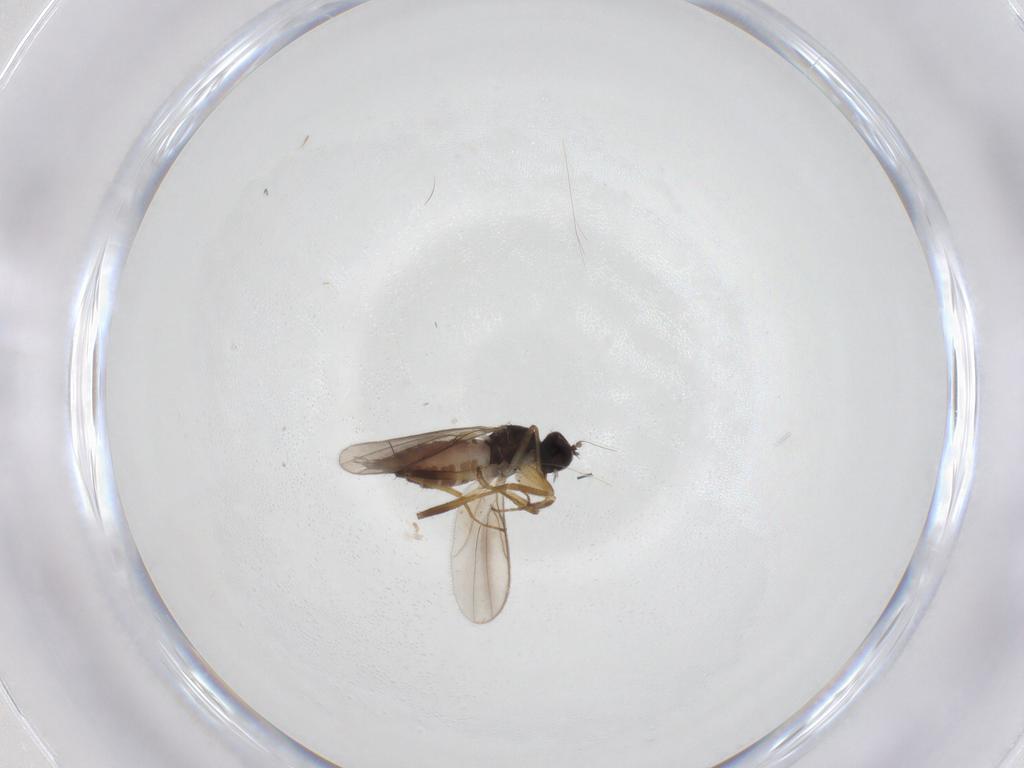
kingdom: Animalia
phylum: Arthropoda
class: Insecta
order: Diptera
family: Hybotidae
